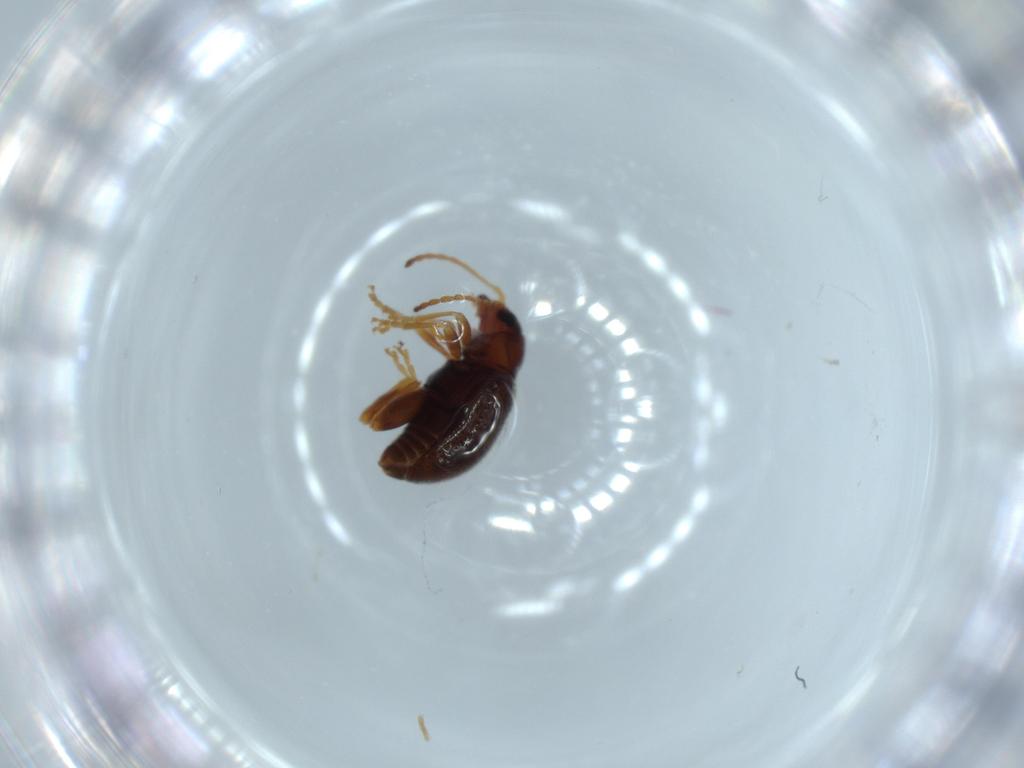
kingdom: Animalia
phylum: Arthropoda
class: Insecta
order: Coleoptera
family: Chrysomelidae
